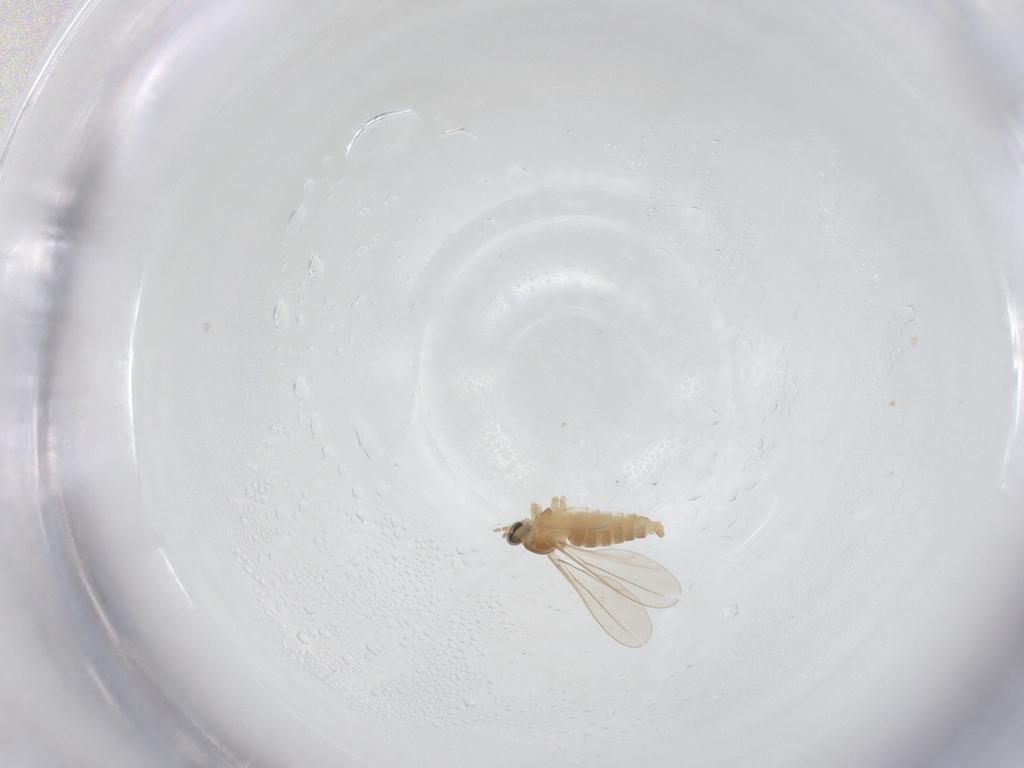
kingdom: Animalia
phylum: Arthropoda
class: Insecta
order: Diptera
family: Cecidomyiidae
